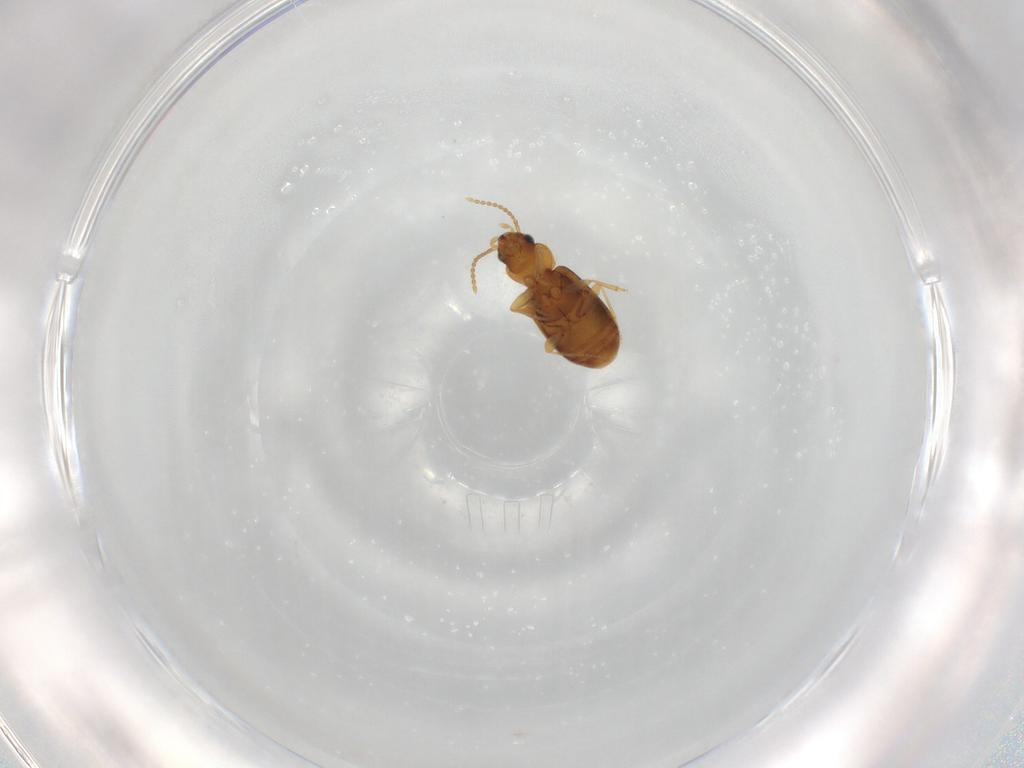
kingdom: Animalia
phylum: Arthropoda
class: Insecta
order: Coleoptera
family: Carabidae
